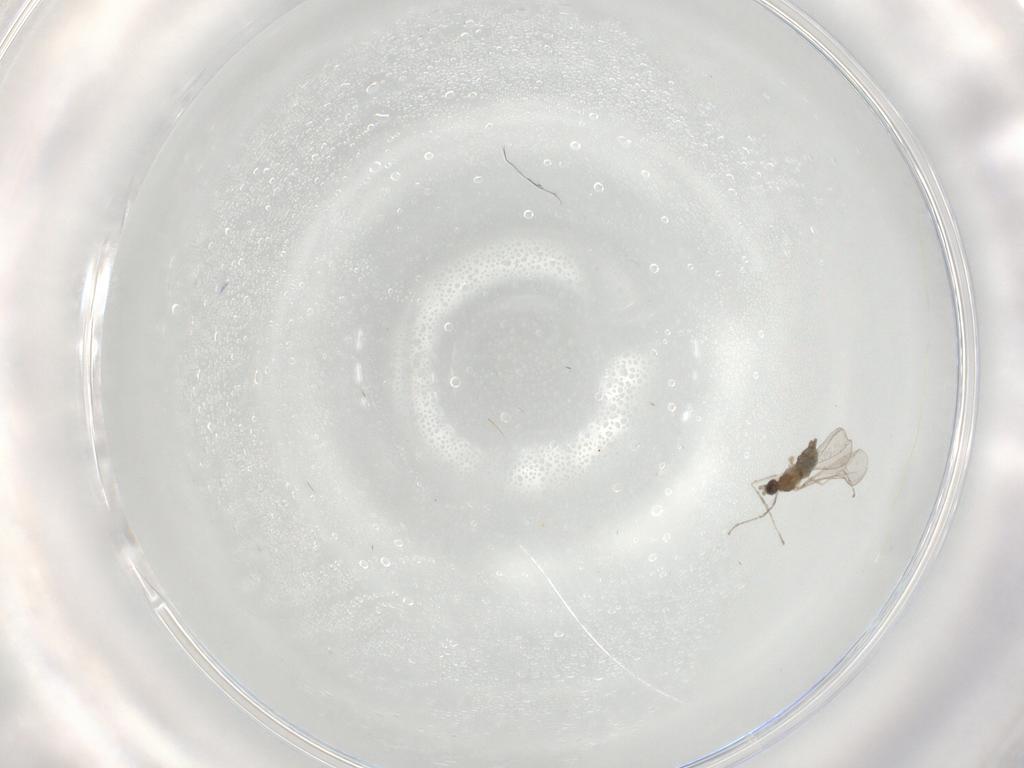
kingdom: Animalia
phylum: Arthropoda
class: Insecta
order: Diptera
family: Cecidomyiidae
